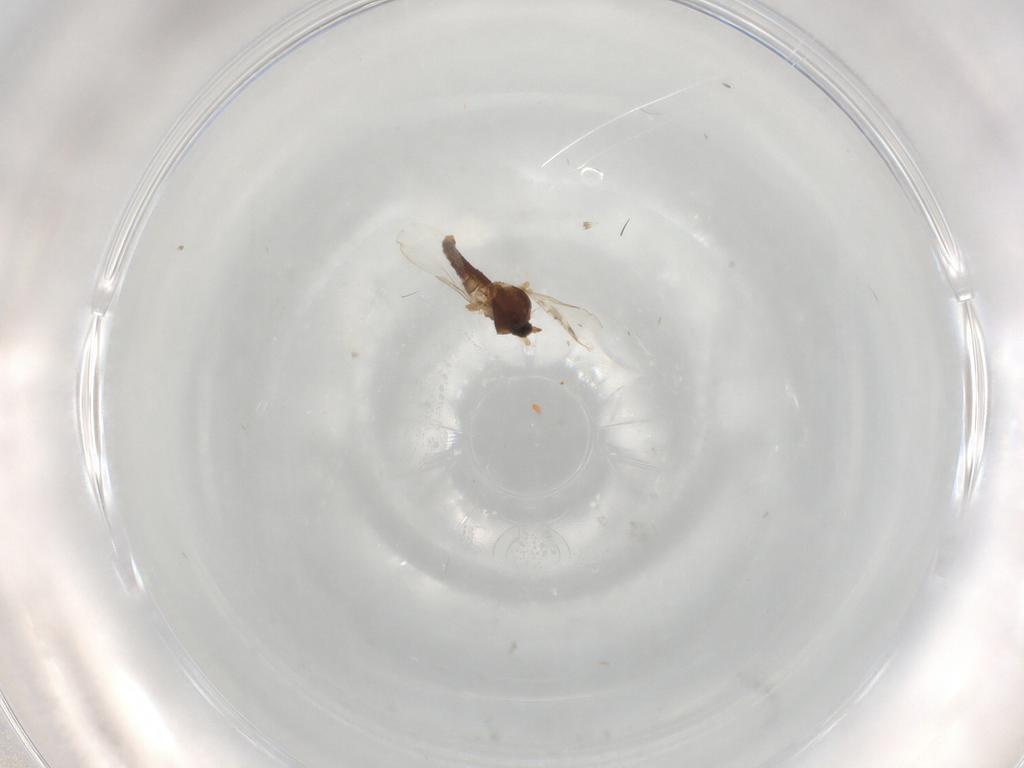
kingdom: Animalia
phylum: Arthropoda
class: Insecta
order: Diptera
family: Ceratopogonidae
